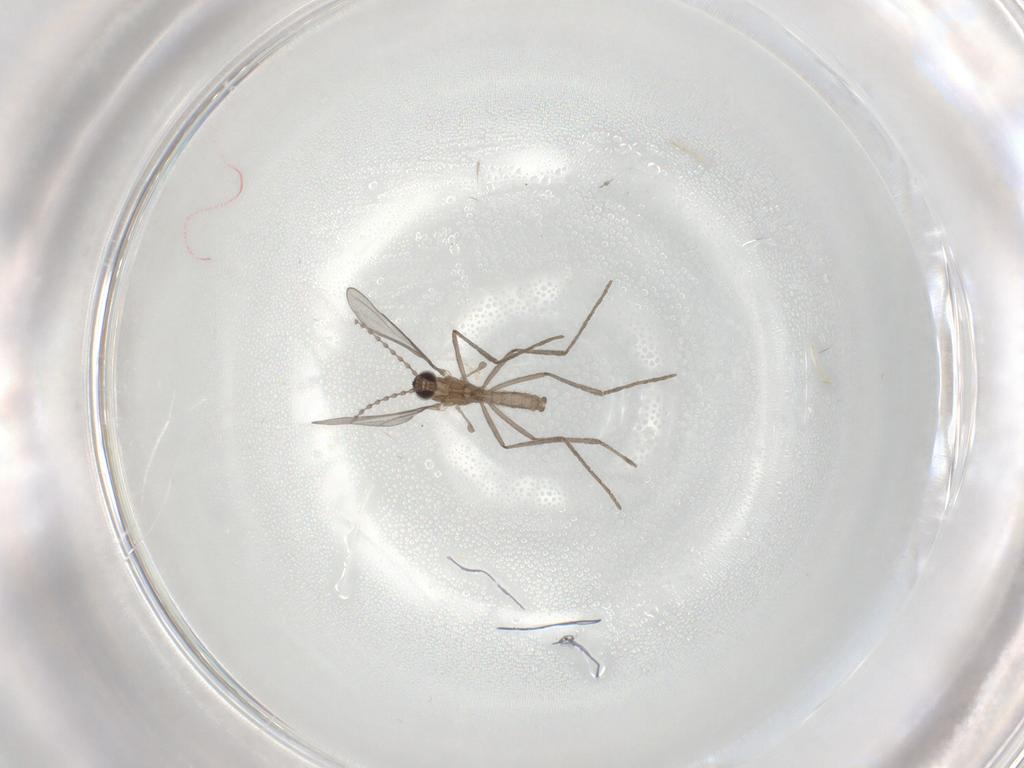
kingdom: Animalia
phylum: Arthropoda
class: Insecta
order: Diptera
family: Cecidomyiidae
